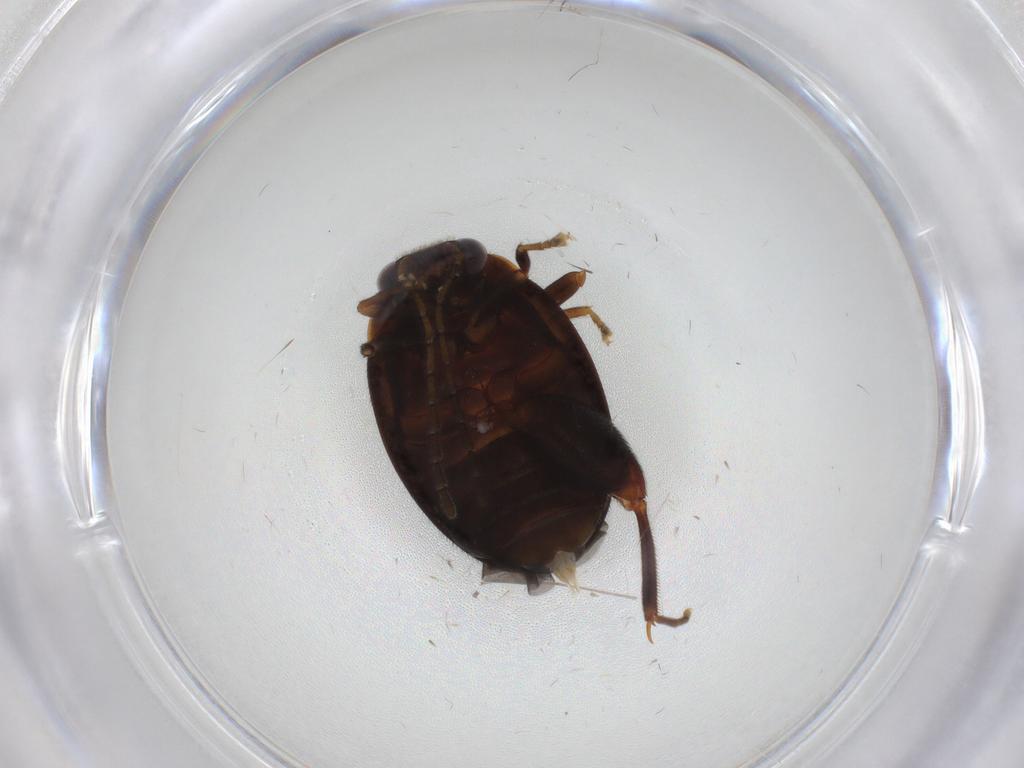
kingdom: Animalia
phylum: Arthropoda
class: Insecta
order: Coleoptera
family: Scirtidae
